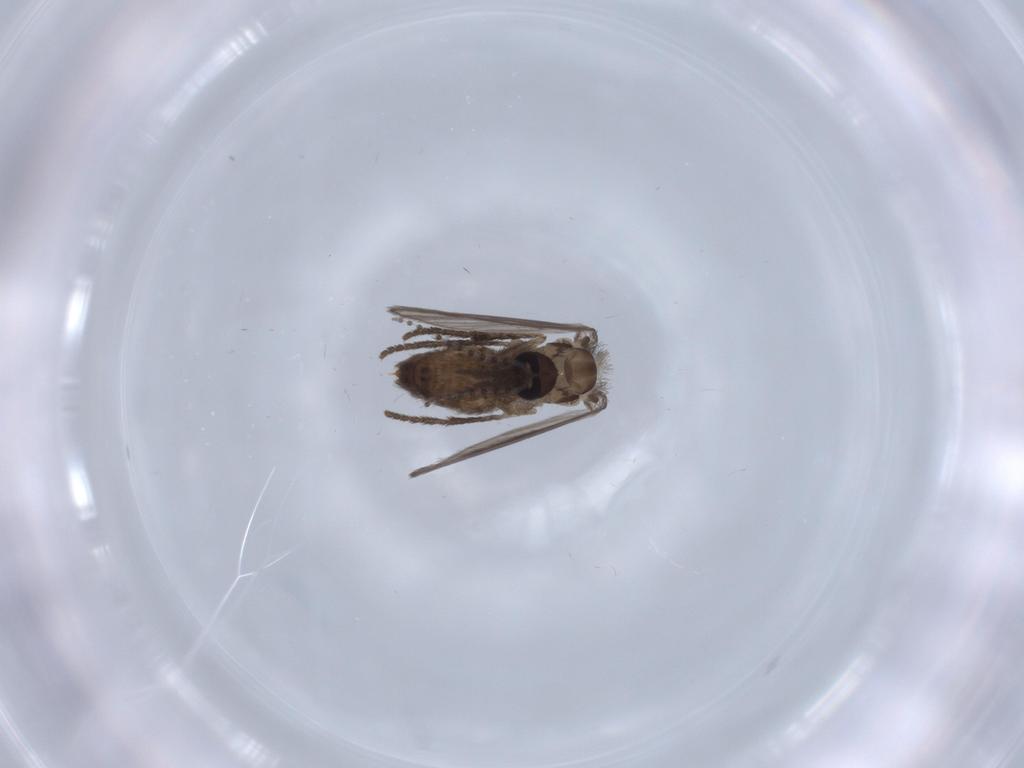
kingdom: Animalia
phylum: Arthropoda
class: Insecta
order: Diptera
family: Psychodidae
